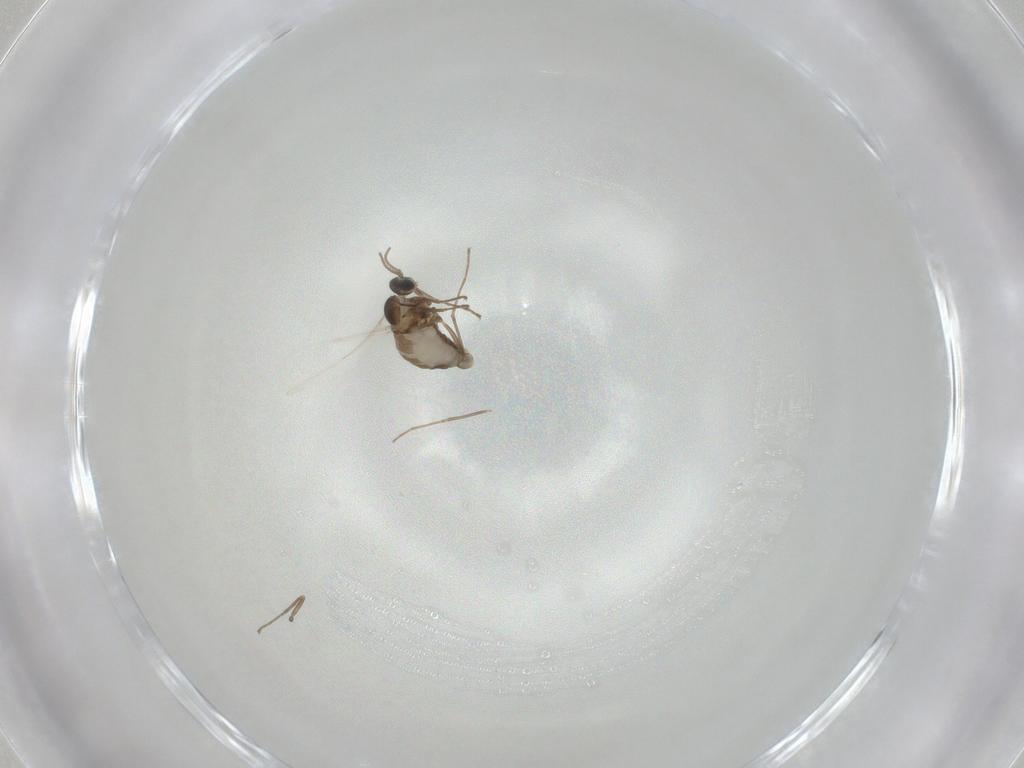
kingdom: Animalia
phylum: Arthropoda
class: Insecta
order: Diptera
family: Cecidomyiidae
